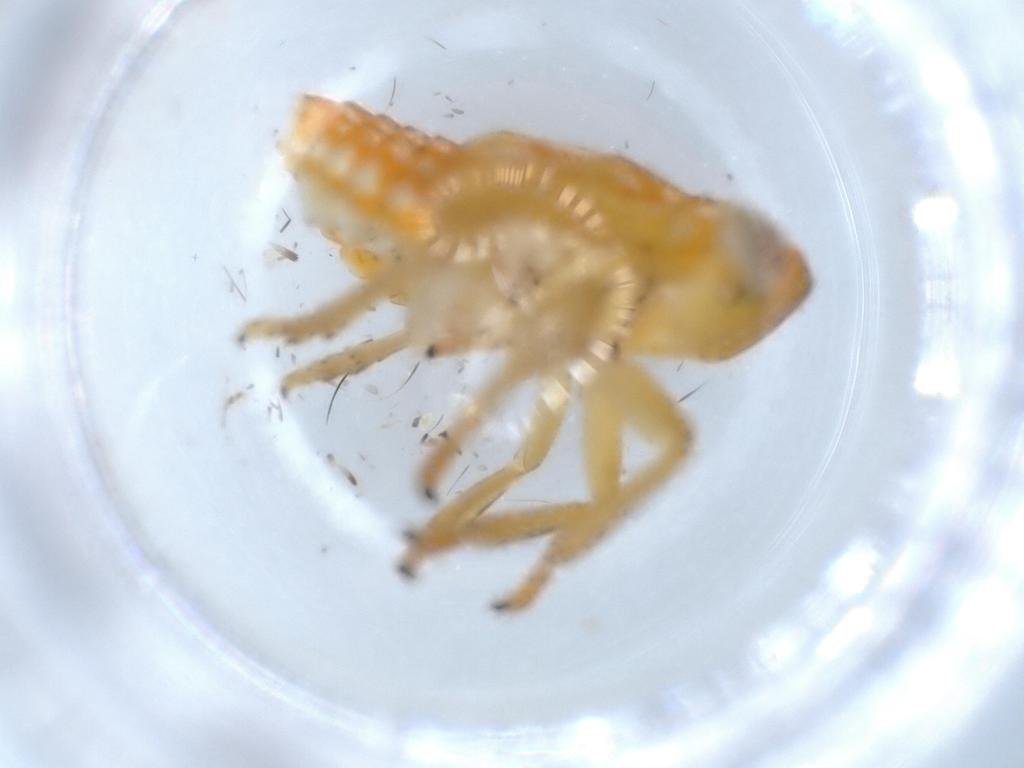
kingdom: Animalia
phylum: Arthropoda
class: Insecta
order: Hemiptera
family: Issidae
